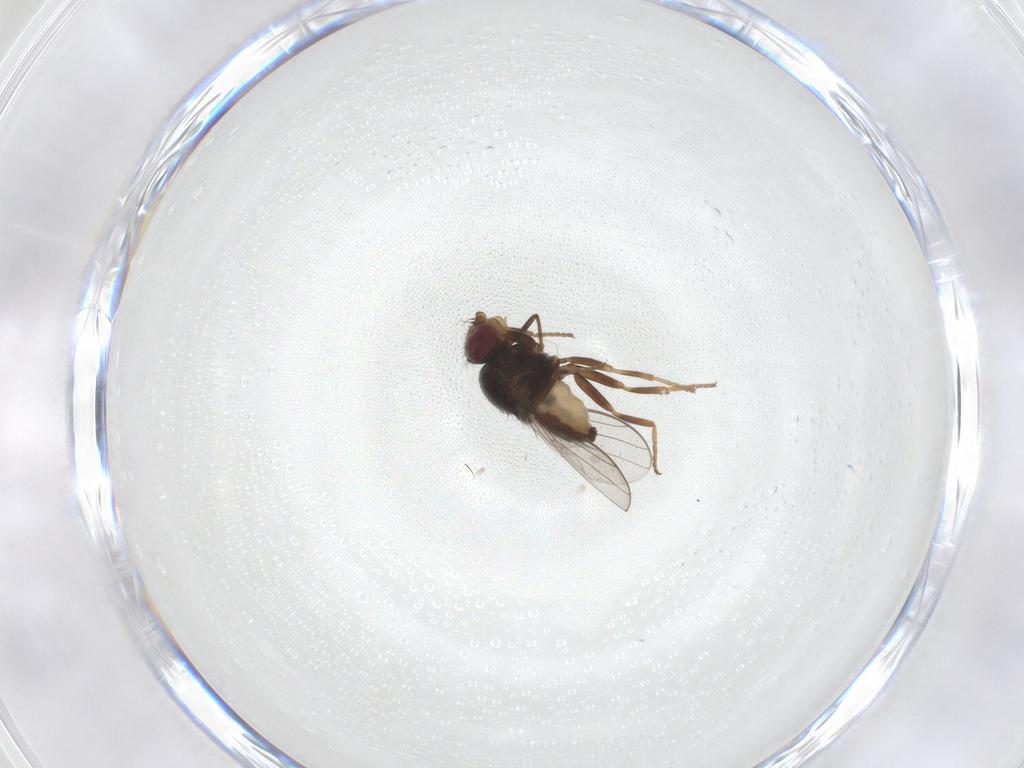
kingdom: Animalia
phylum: Arthropoda
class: Insecta
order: Diptera
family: Chloropidae
